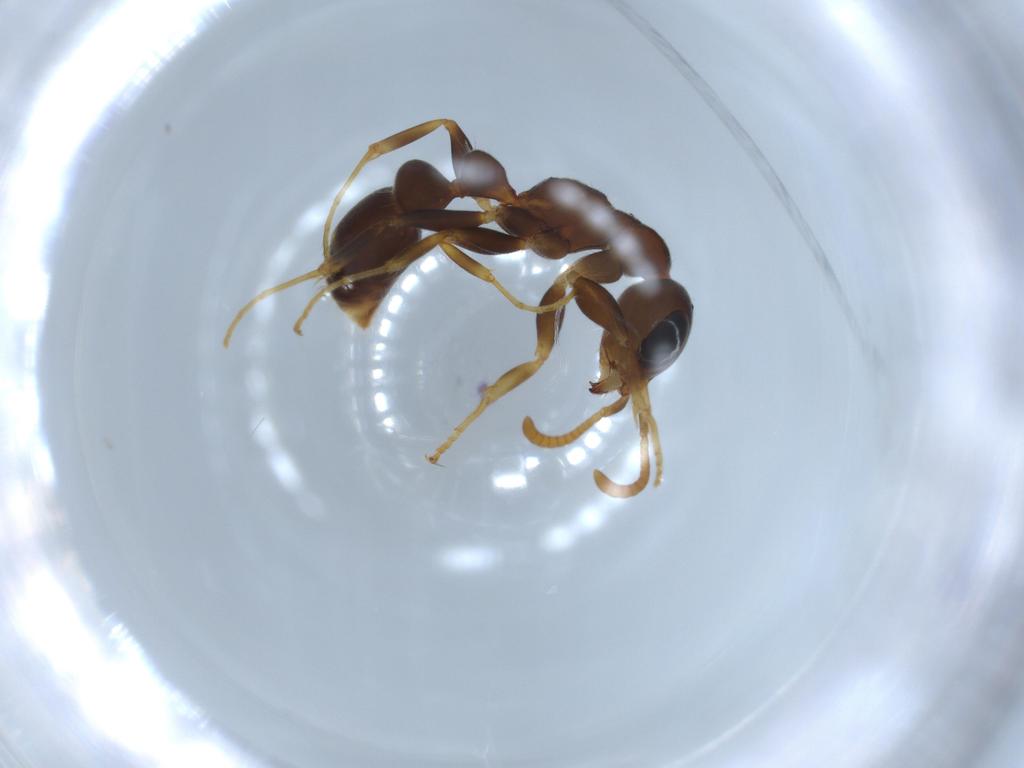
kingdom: Animalia
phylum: Arthropoda
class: Insecta
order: Hymenoptera
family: Formicidae
